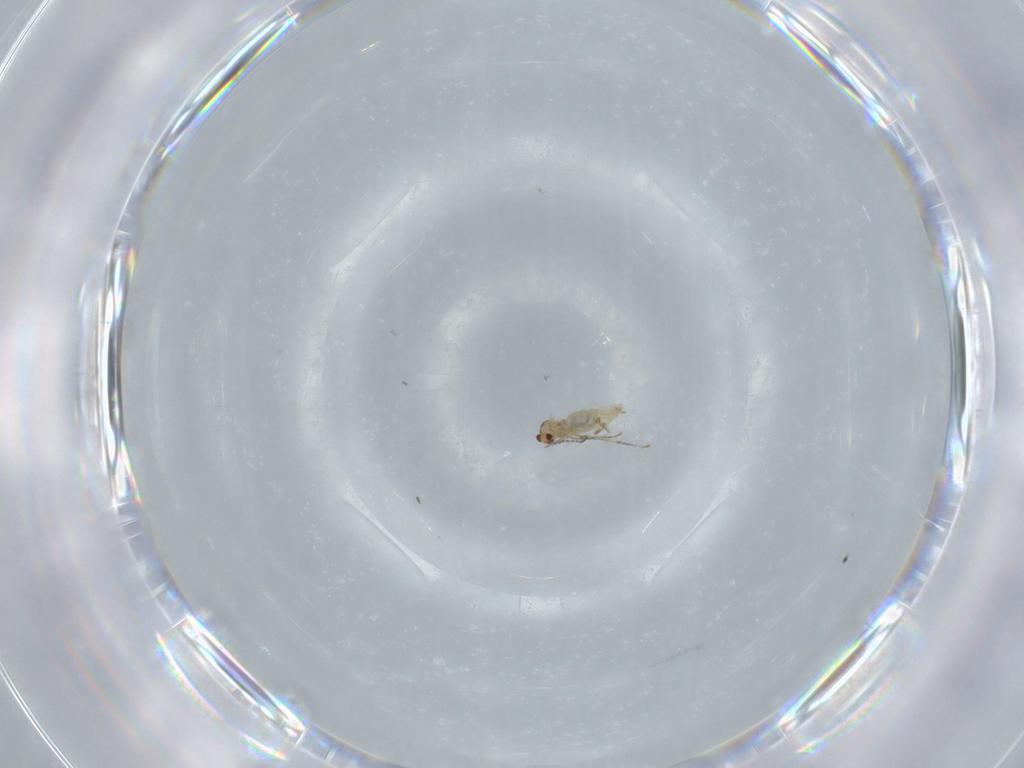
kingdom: Animalia
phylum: Arthropoda
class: Insecta
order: Diptera
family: Cecidomyiidae
